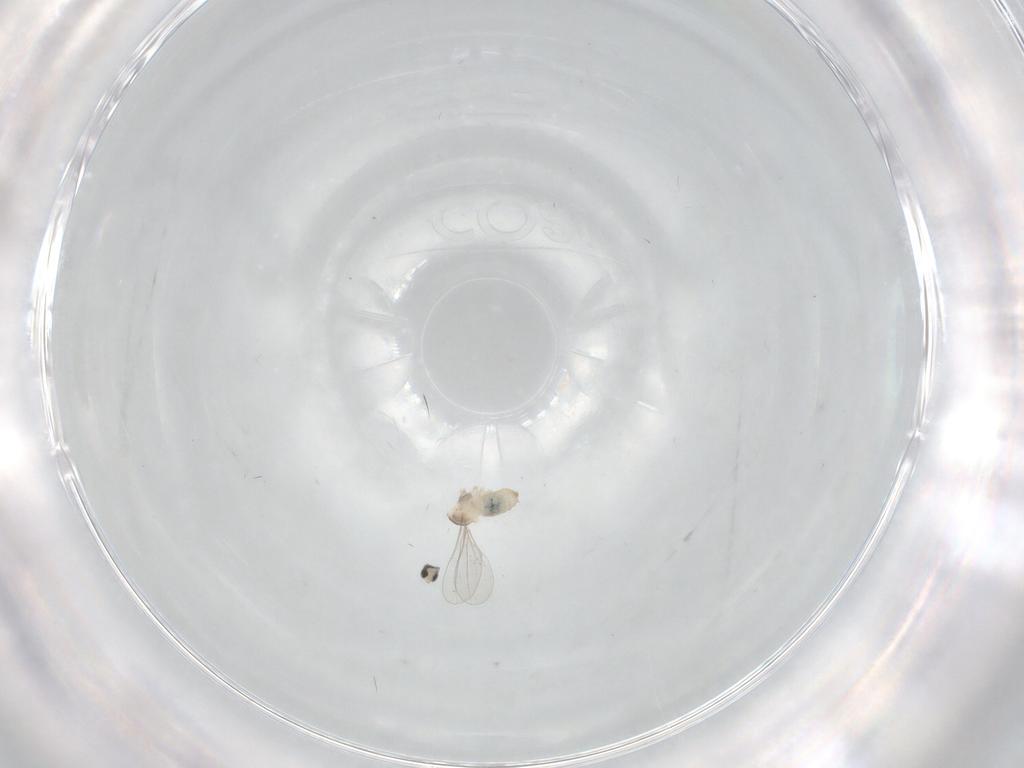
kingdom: Animalia
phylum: Arthropoda
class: Insecta
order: Diptera
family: Cecidomyiidae
